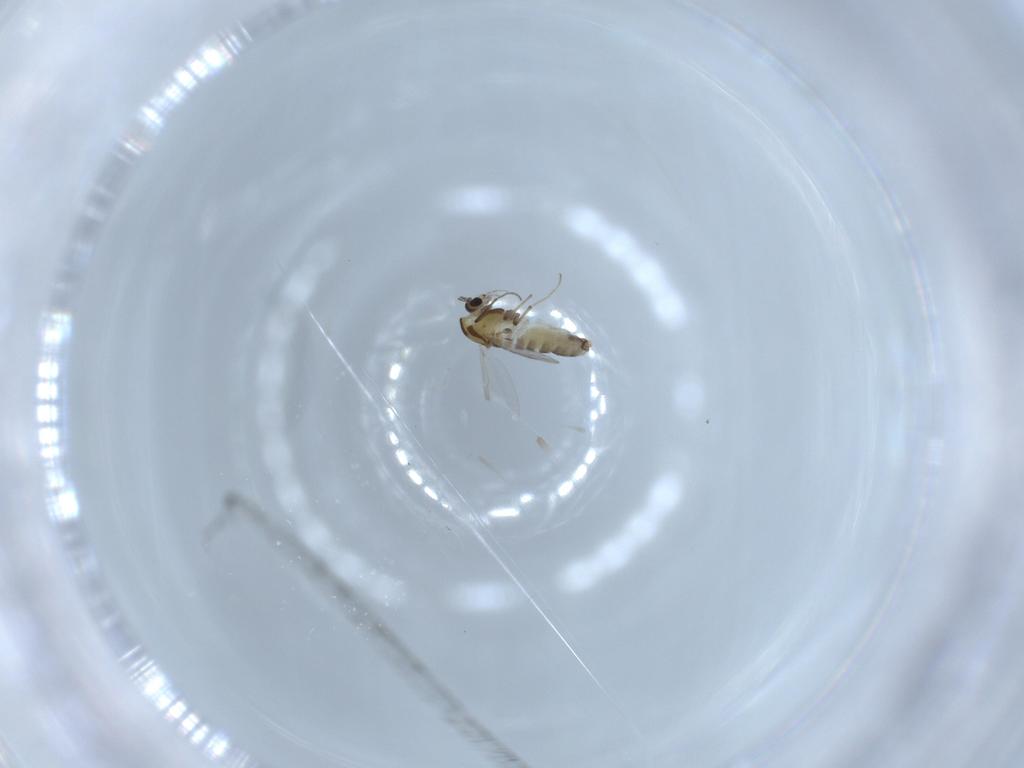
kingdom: Animalia
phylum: Arthropoda
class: Insecta
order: Diptera
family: Chironomidae
